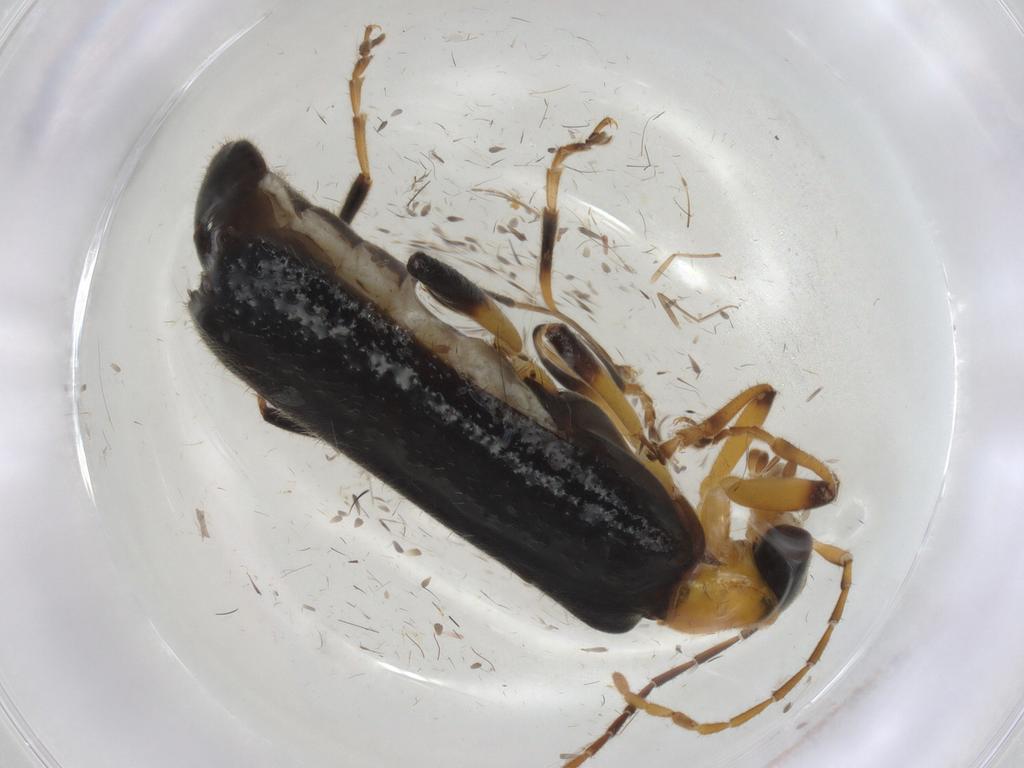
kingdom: Animalia
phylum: Arthropoda
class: Insecta
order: Coleoptera
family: Cantharidae
